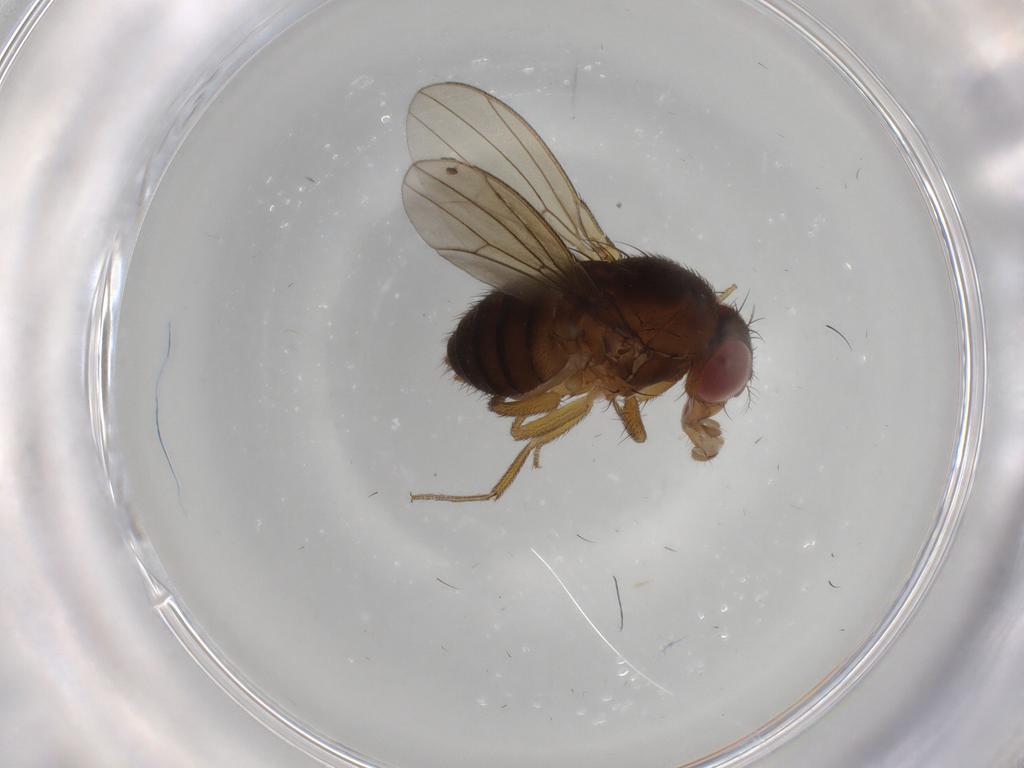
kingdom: Animalia
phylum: Arthropoda
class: Insecta
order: Diptera
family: Drosophilidae
